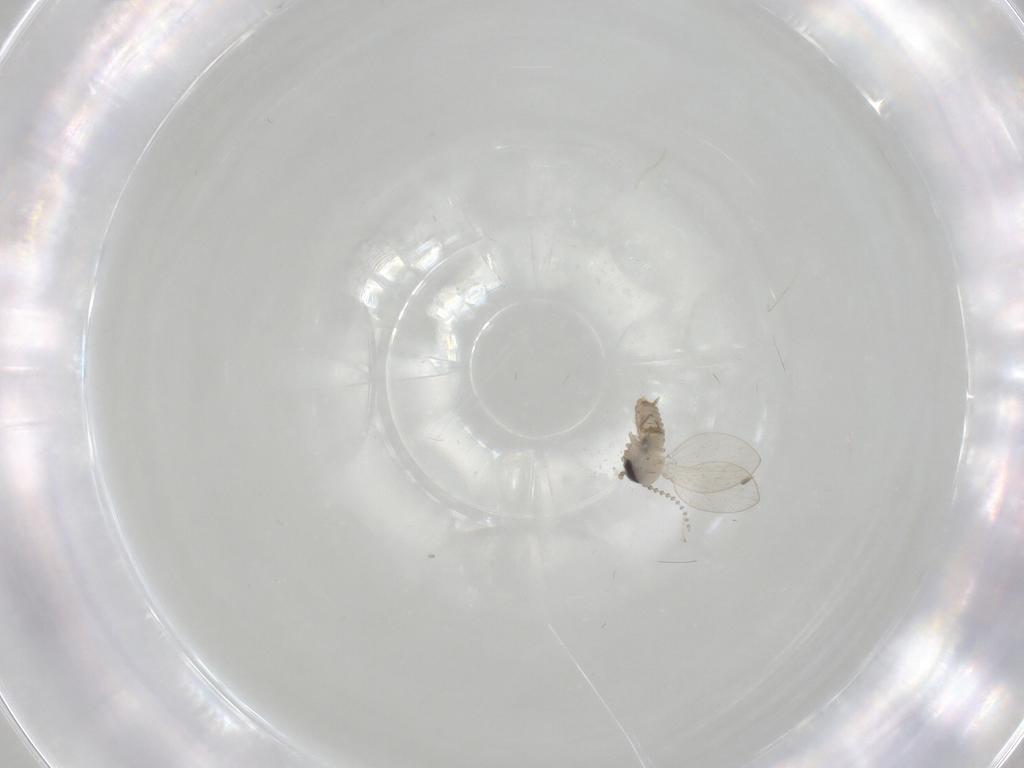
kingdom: Animalia
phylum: Arthropoda
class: Insecta
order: Diptera
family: Psychodidae
